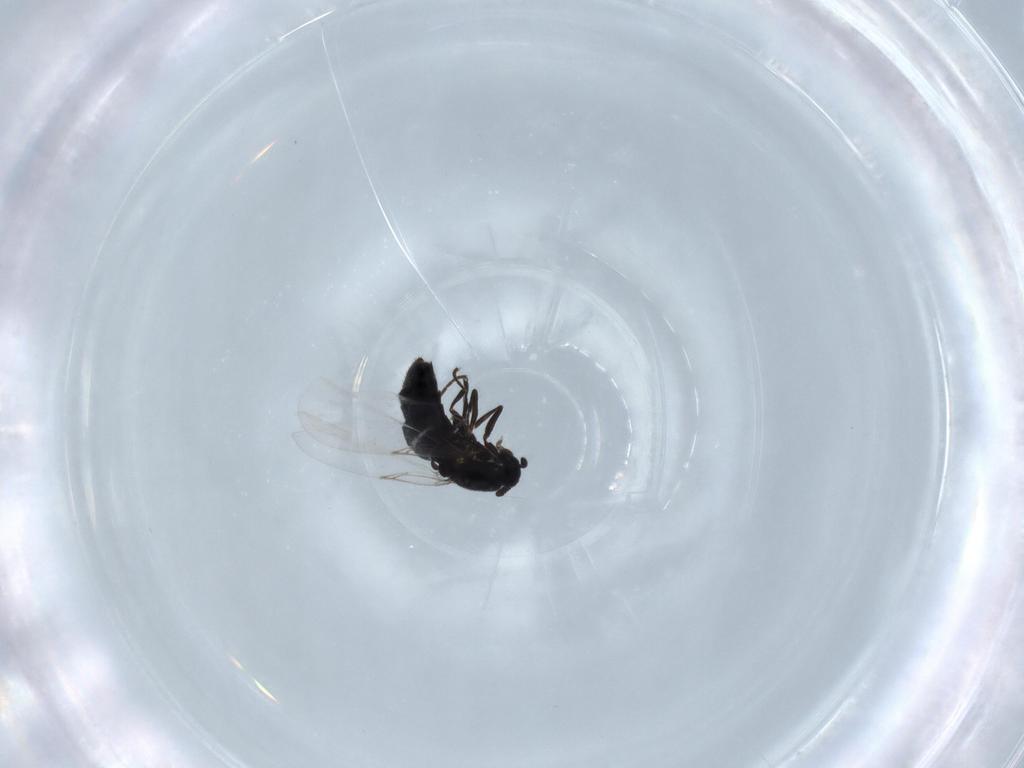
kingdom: Animalia
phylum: Arthropoda
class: Insecta
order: Diptera
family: Scatopsidae
